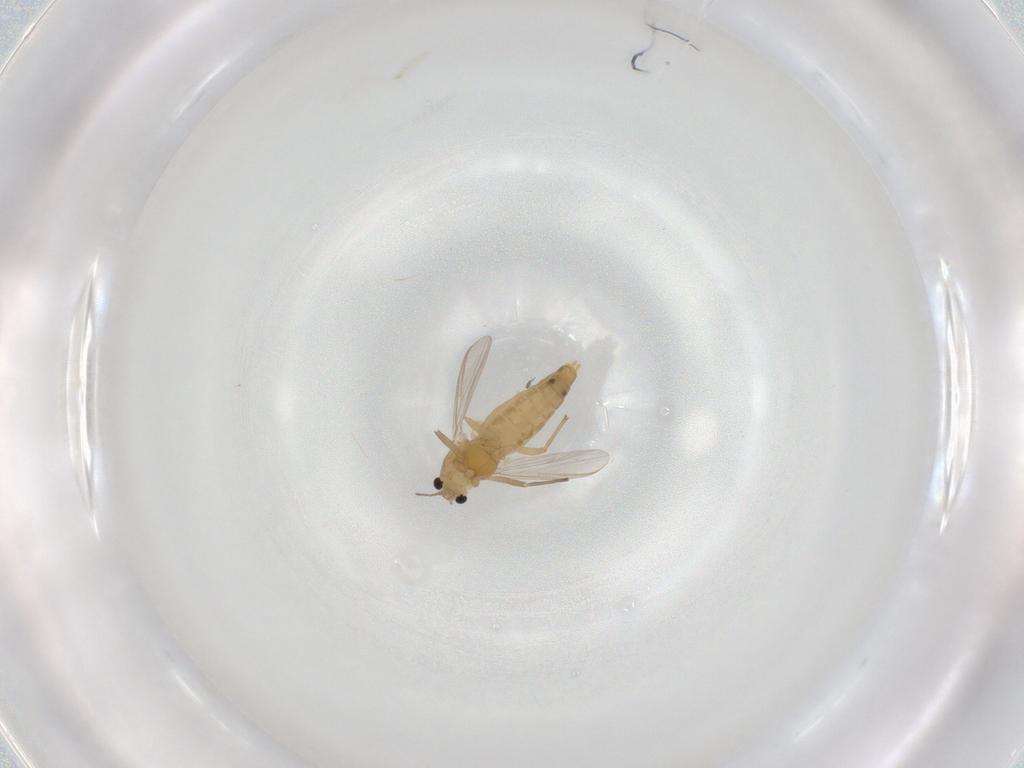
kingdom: Animalia
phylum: Arthropoda
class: Insecta
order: Diptera
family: Chironomidae
